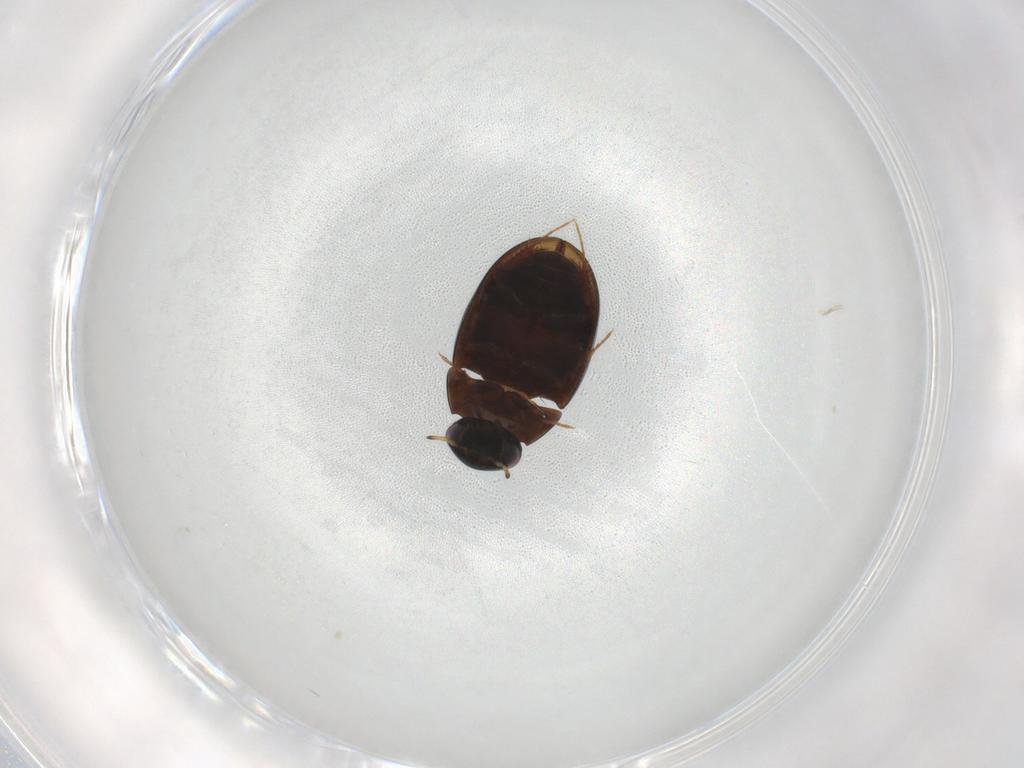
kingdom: Animalia
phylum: Arthropoda
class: Insecta
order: Coleoptera
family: Hydrophilidae
